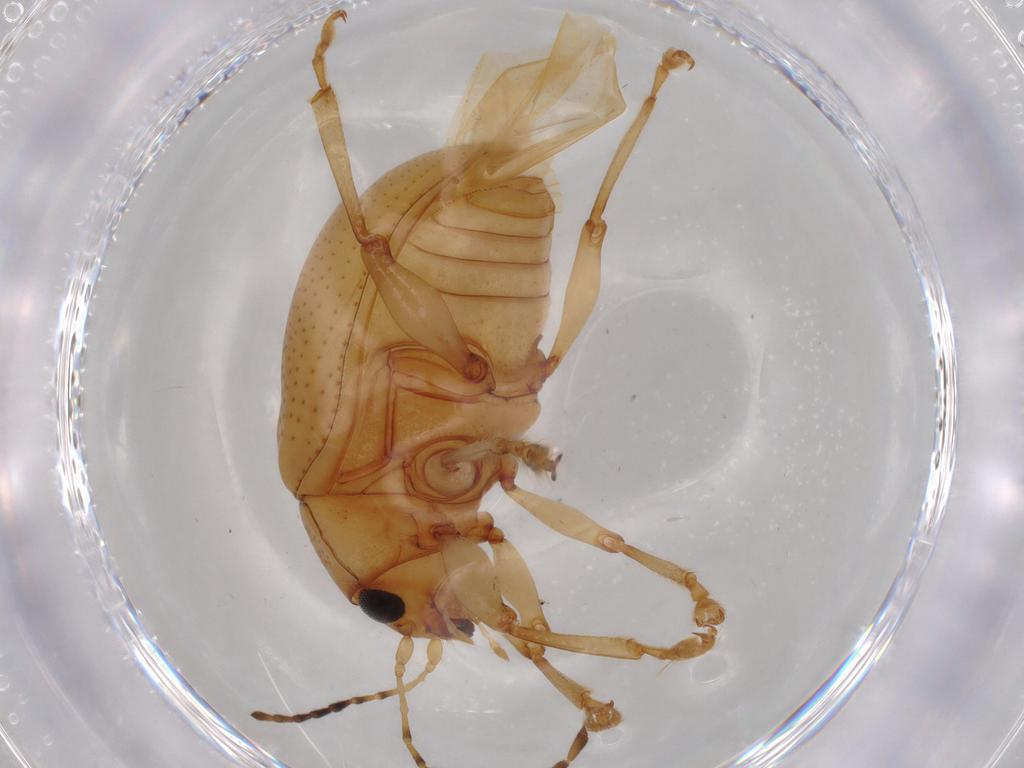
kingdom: Animalia
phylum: Arthropoda
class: Insecta
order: Coleoptera
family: Chrysomelidae
